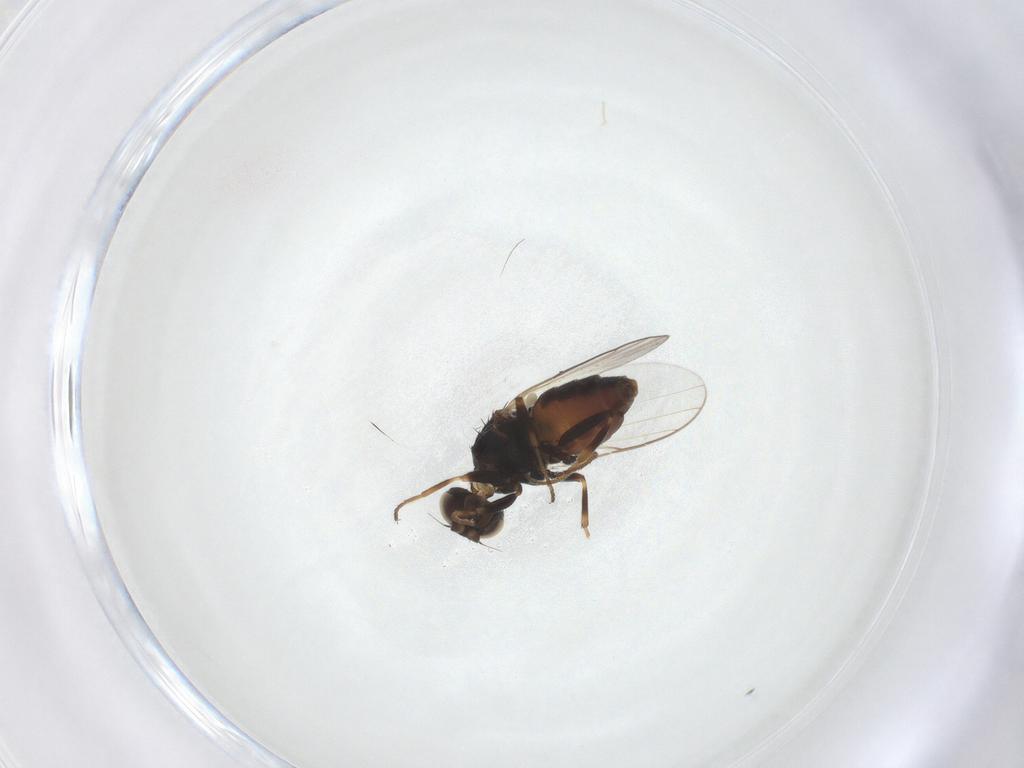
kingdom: Animalia
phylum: Arthropoda
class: Insecta
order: Diptera
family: Chloropidae
